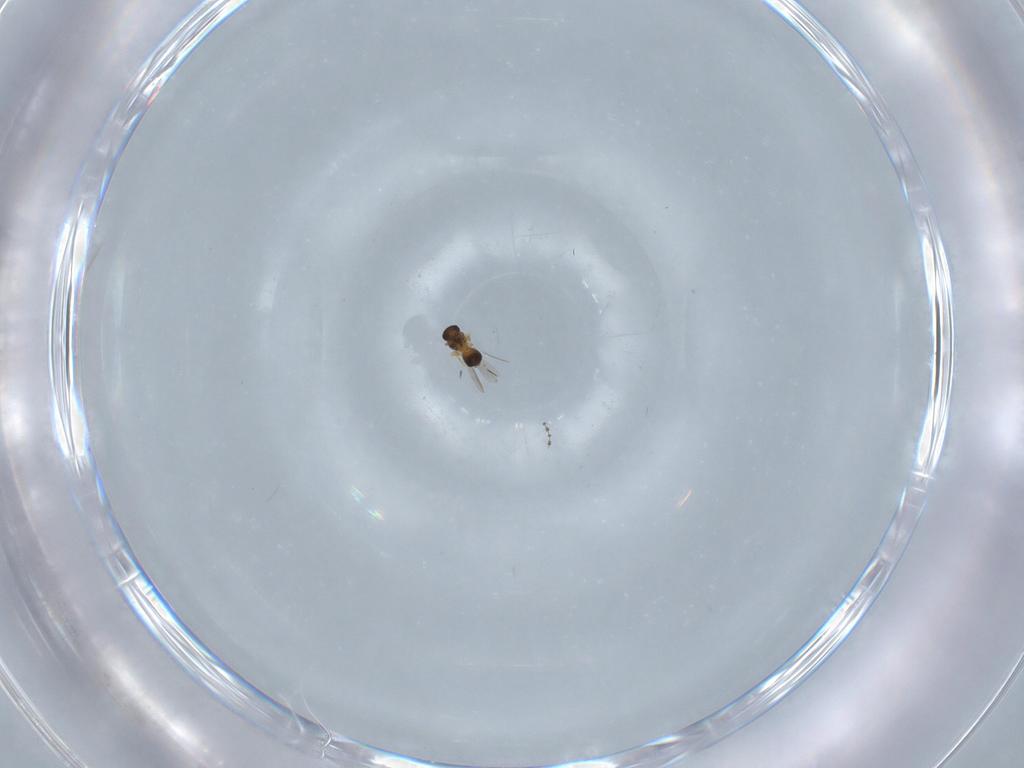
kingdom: Animalia
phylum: Arthropoda
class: Insecta
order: Hymenoptera
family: Platygastridae
